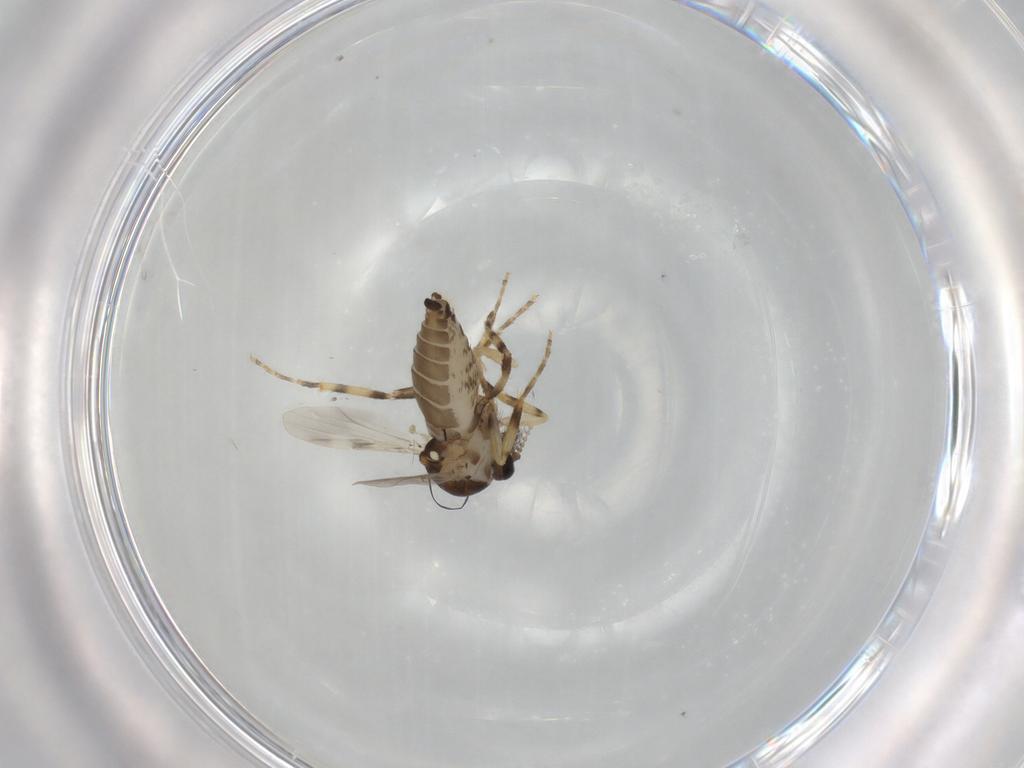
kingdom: Animalia
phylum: Arthropoda
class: Insecta
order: Diptera
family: Ceratopogonidae
